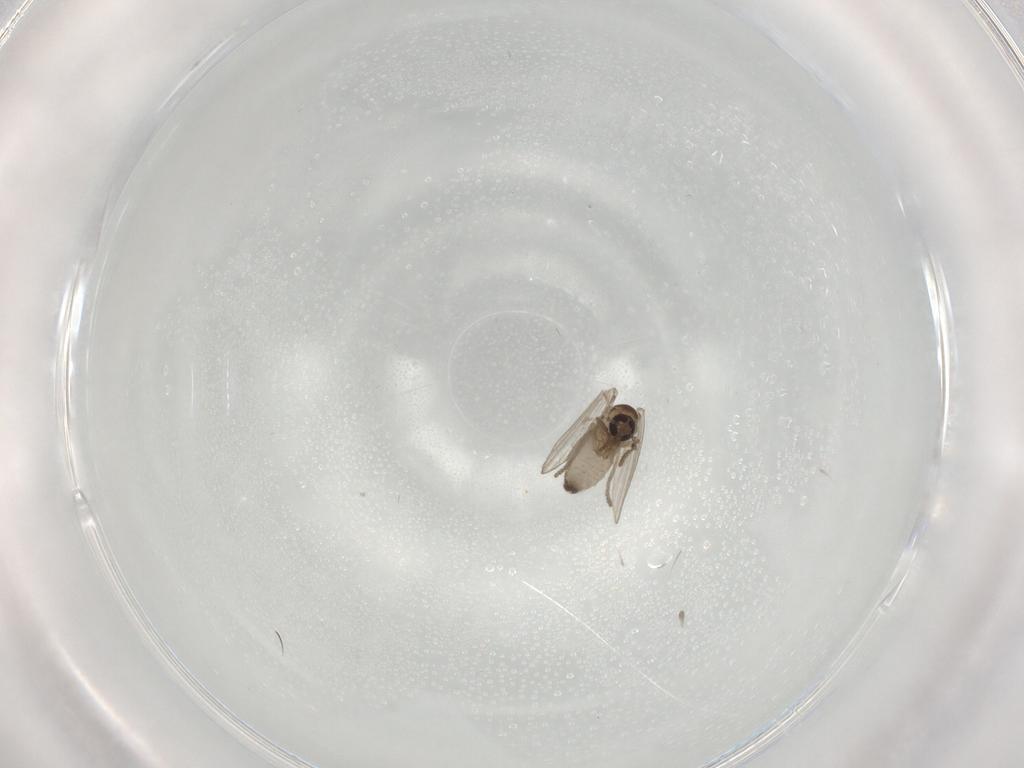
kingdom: Animalia
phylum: Arthropoda
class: Insecta
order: Diptera
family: Psychodidae
